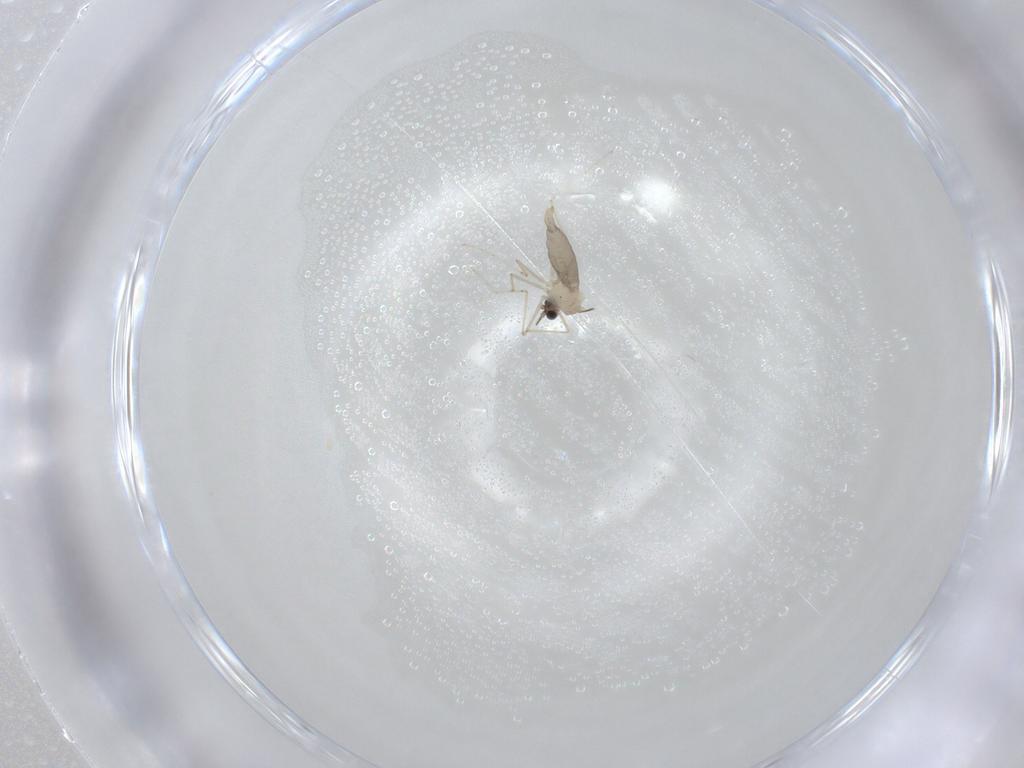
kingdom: Animalia
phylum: Arthropoda
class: Insecta
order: Diptera
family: Cecidomyiidae
